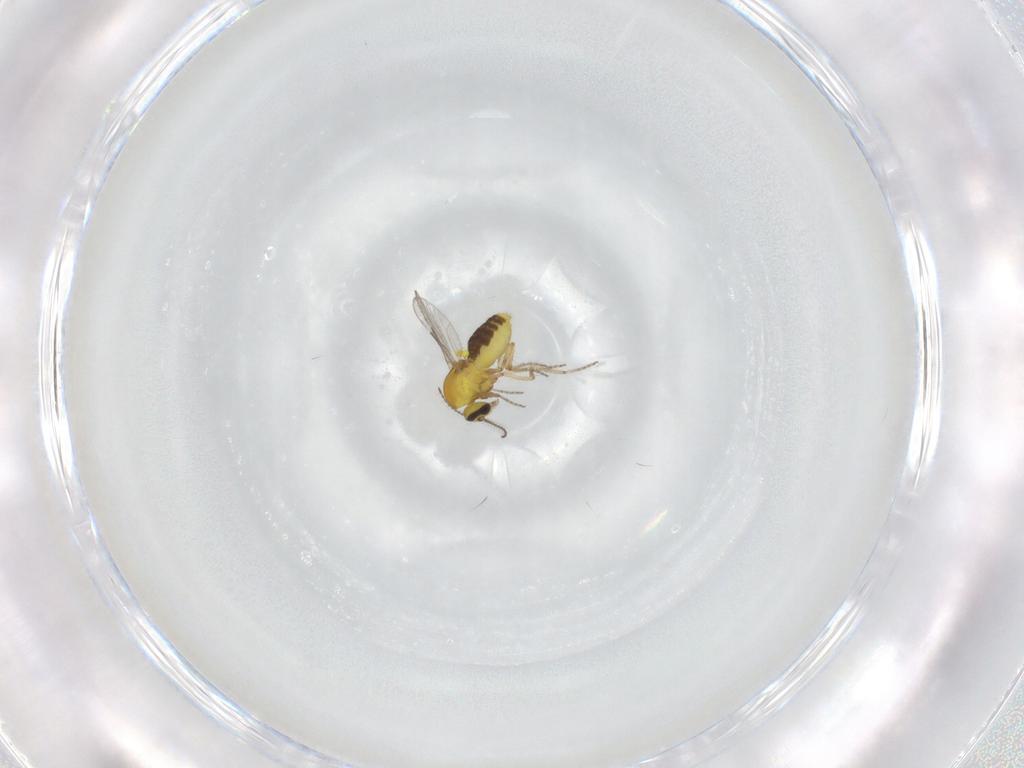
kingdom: Animalia
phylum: Arthropoda
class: Insecta
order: Diptera
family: Ceratopogonidae
